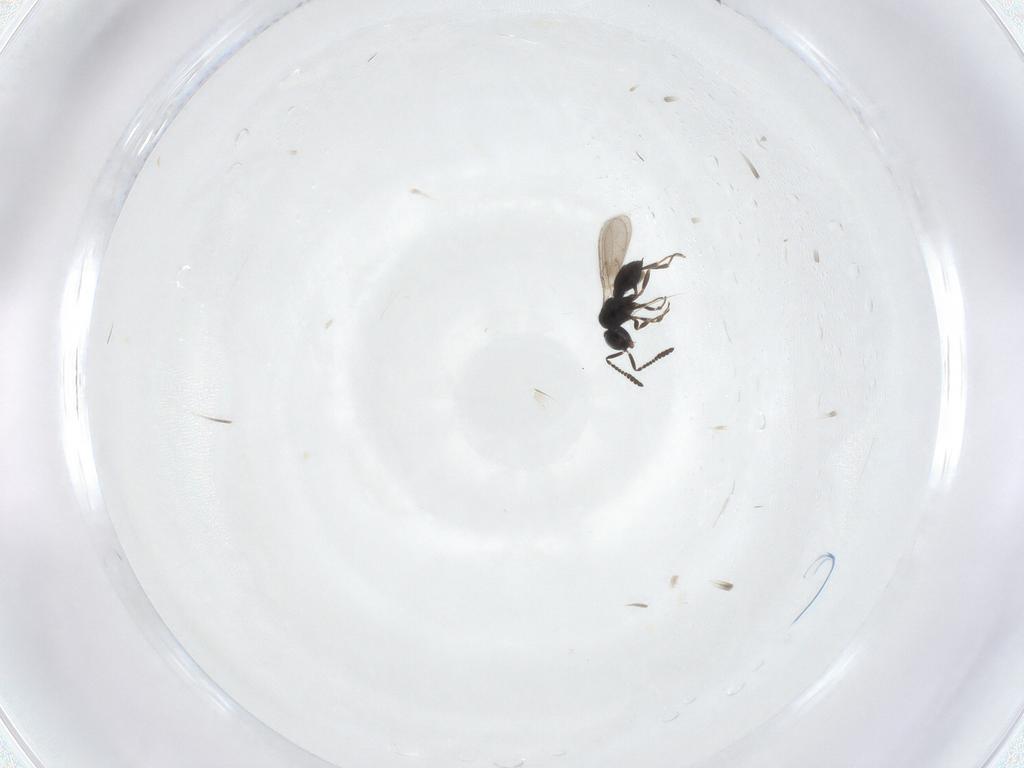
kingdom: Animalia
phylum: Arthropoda
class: Insecta
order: Hymenoptera
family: Scelionidae
